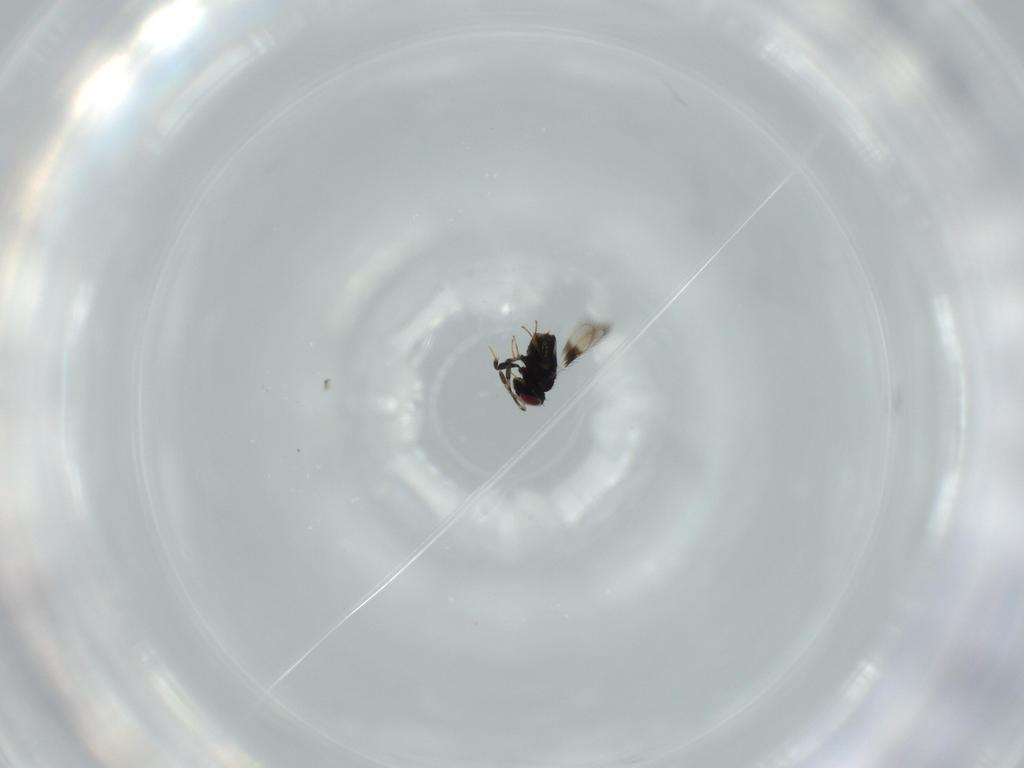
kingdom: Animalia
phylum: Arthropoda
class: Insecta
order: Hymenoptera
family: Azotidae
